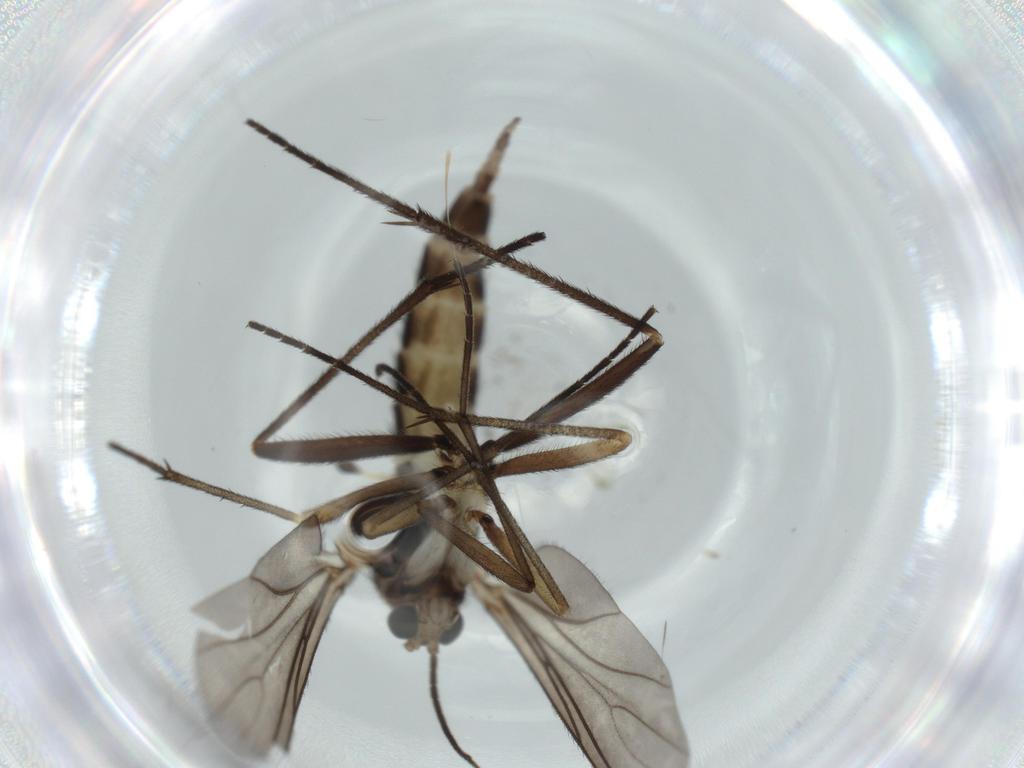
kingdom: Animalia
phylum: Arthropoda
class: Insecta
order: Diptera
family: Sciaridae
